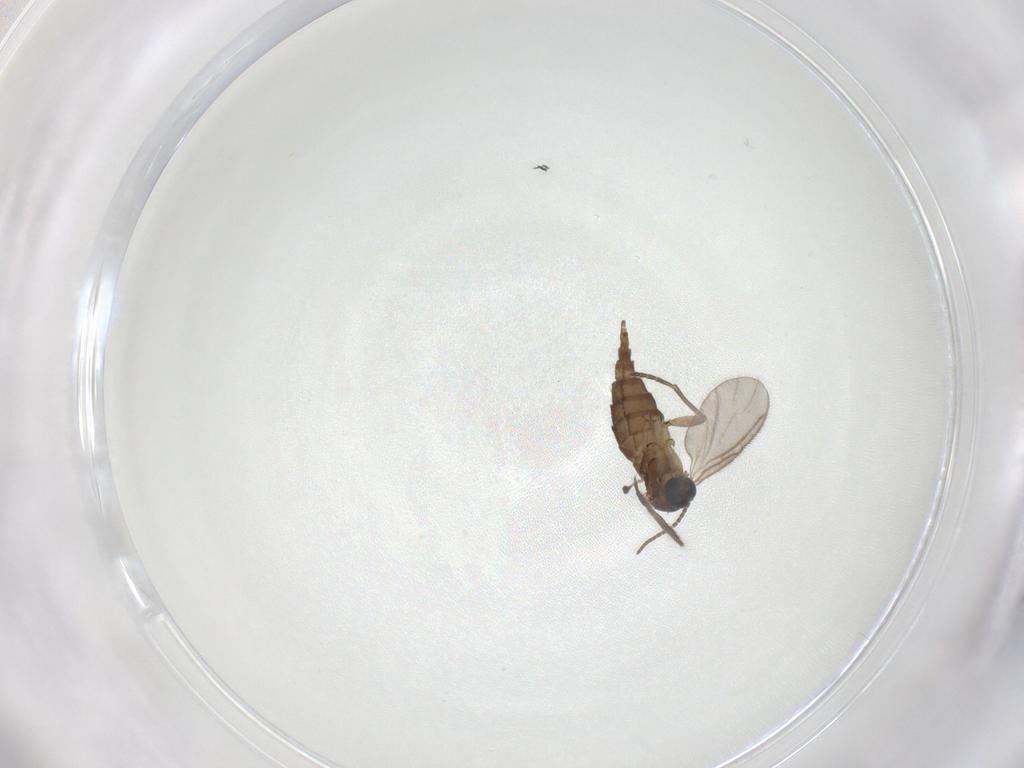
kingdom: Animalia
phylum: Arthropoda
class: Insecta
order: Diptera
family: Sciaridae
